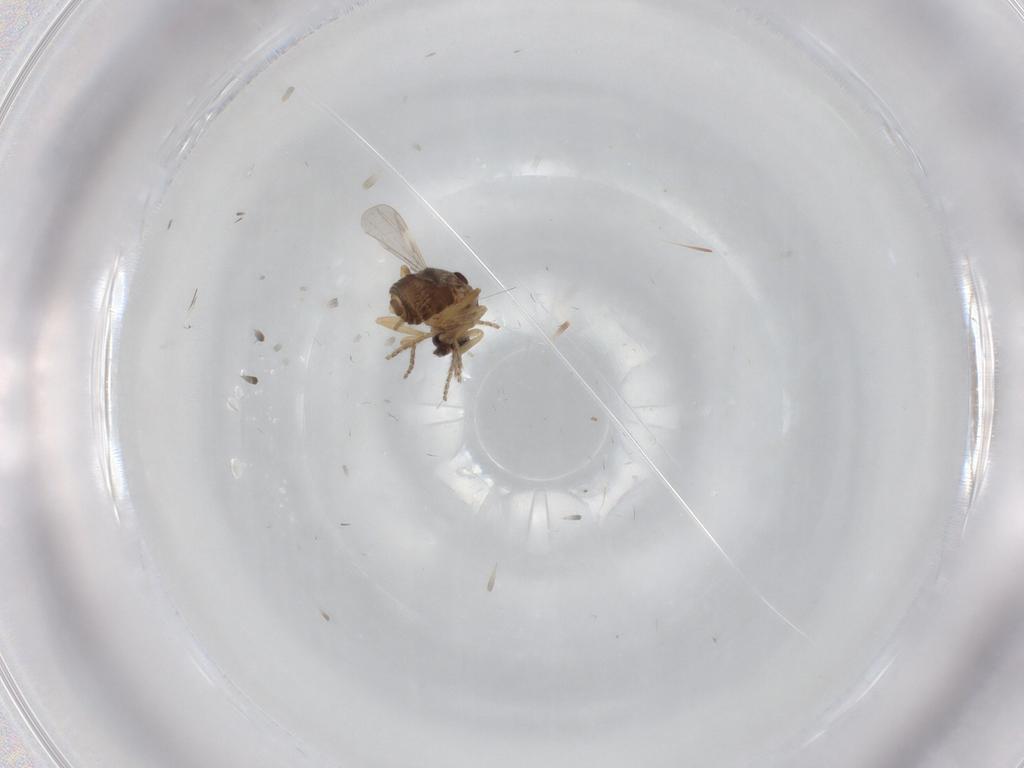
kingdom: Animalia
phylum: Arthropoda
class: Insecta
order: Diptera
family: Ceratopogonidae
